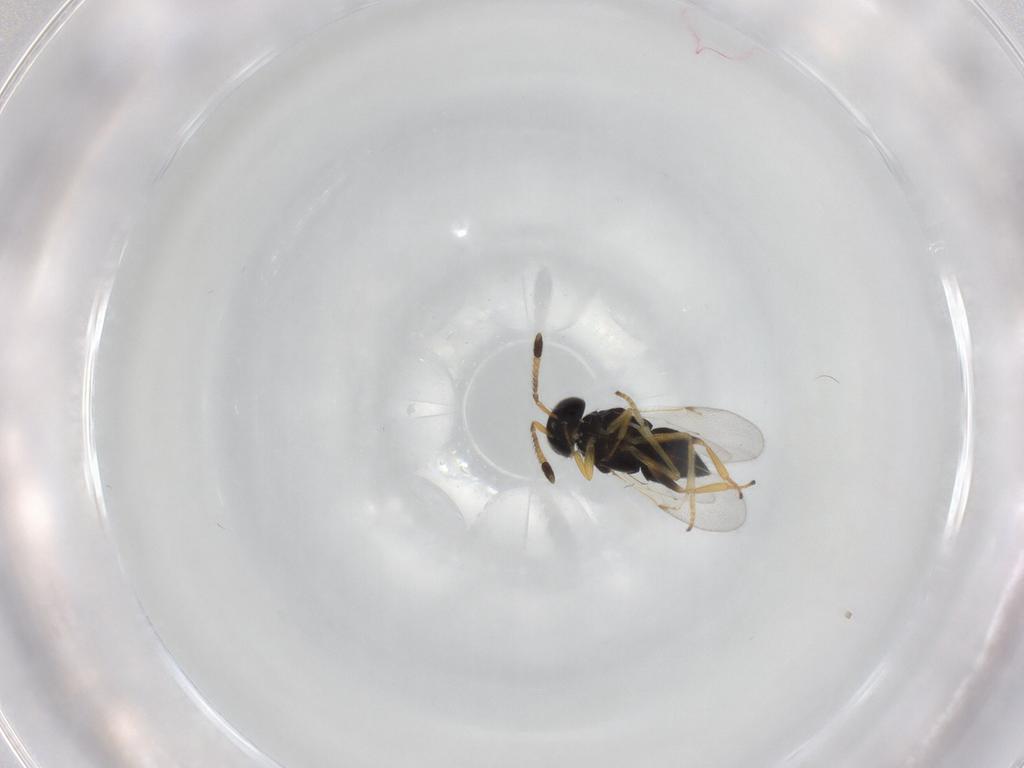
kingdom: Animalia
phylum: Arthropoda
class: Insecta
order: Hymenoptera
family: Encyrtidae
